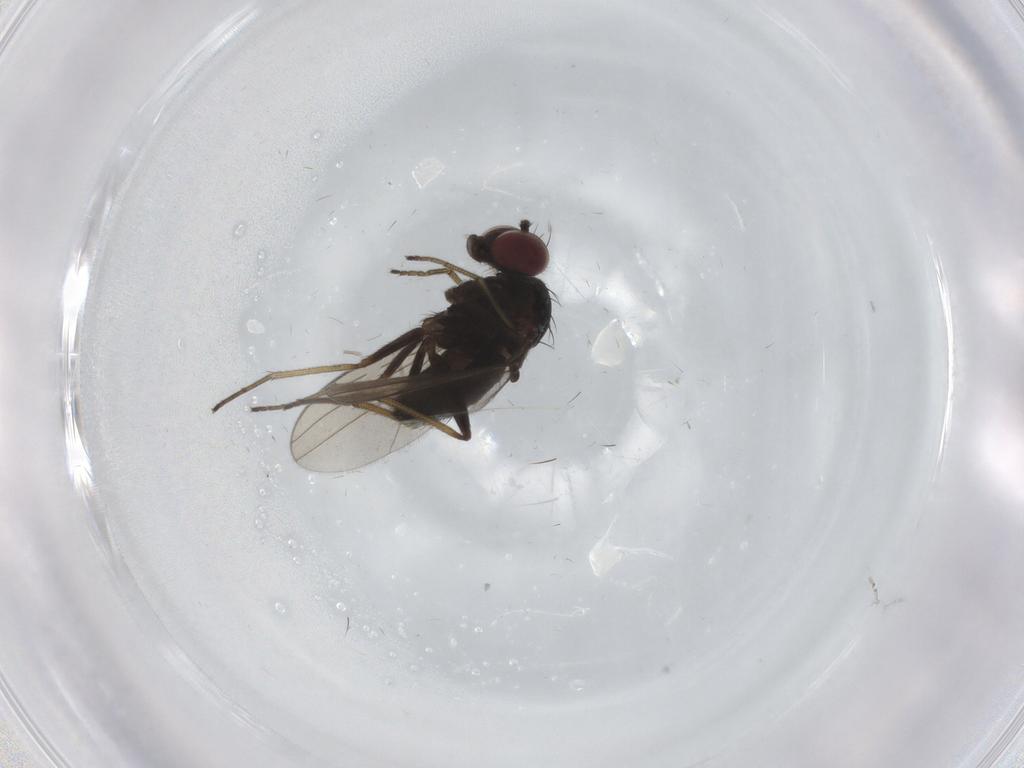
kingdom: Animalia
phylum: Arthropoda
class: Insecta
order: Diptera
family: Dolichopodidae
